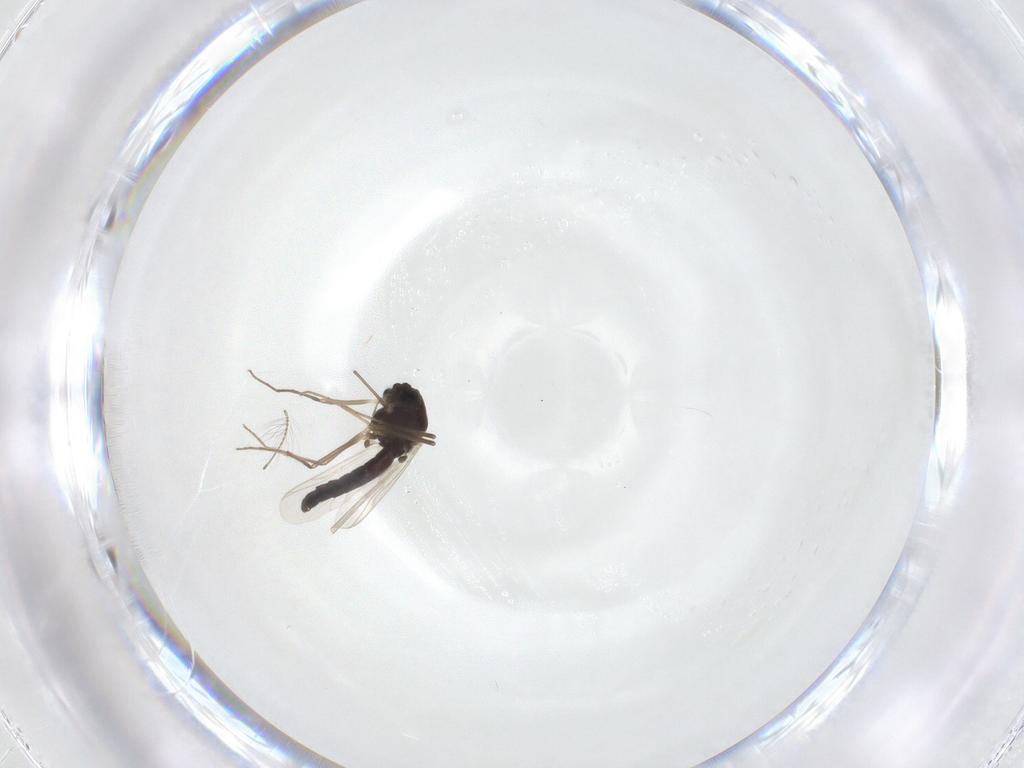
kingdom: Animalia
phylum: Arthropoda
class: Insecta
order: Diptera
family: Chironomidae
